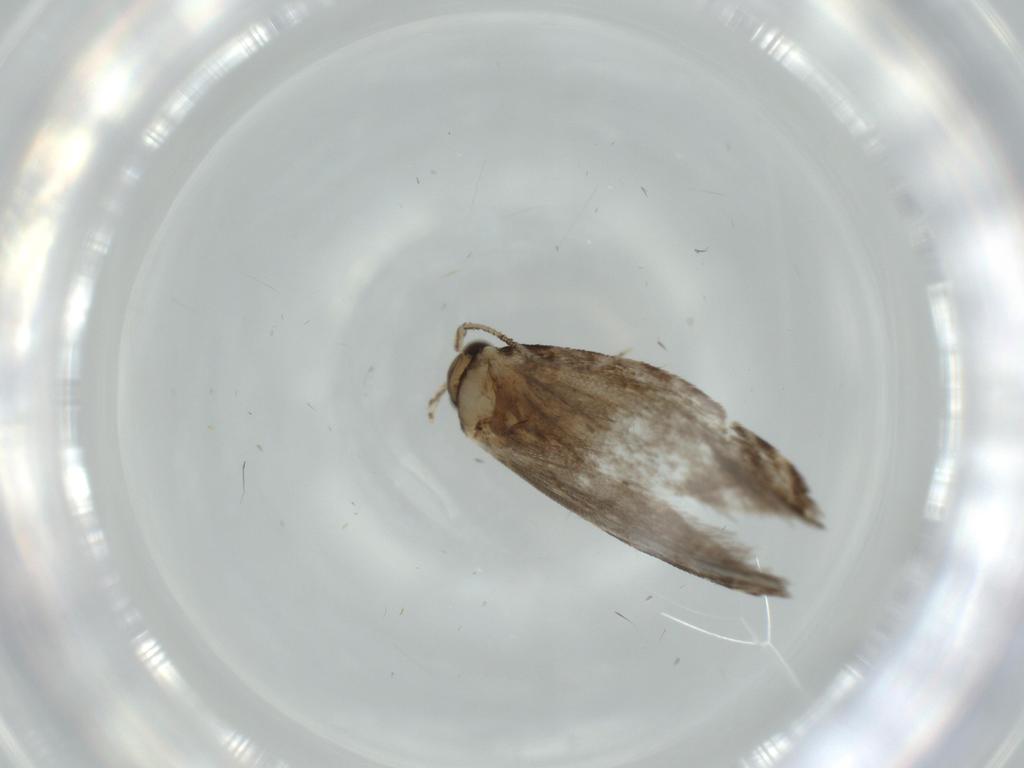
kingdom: Animalia
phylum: Arthropoda
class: Insecta
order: Lepidoptera
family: Tineidae
